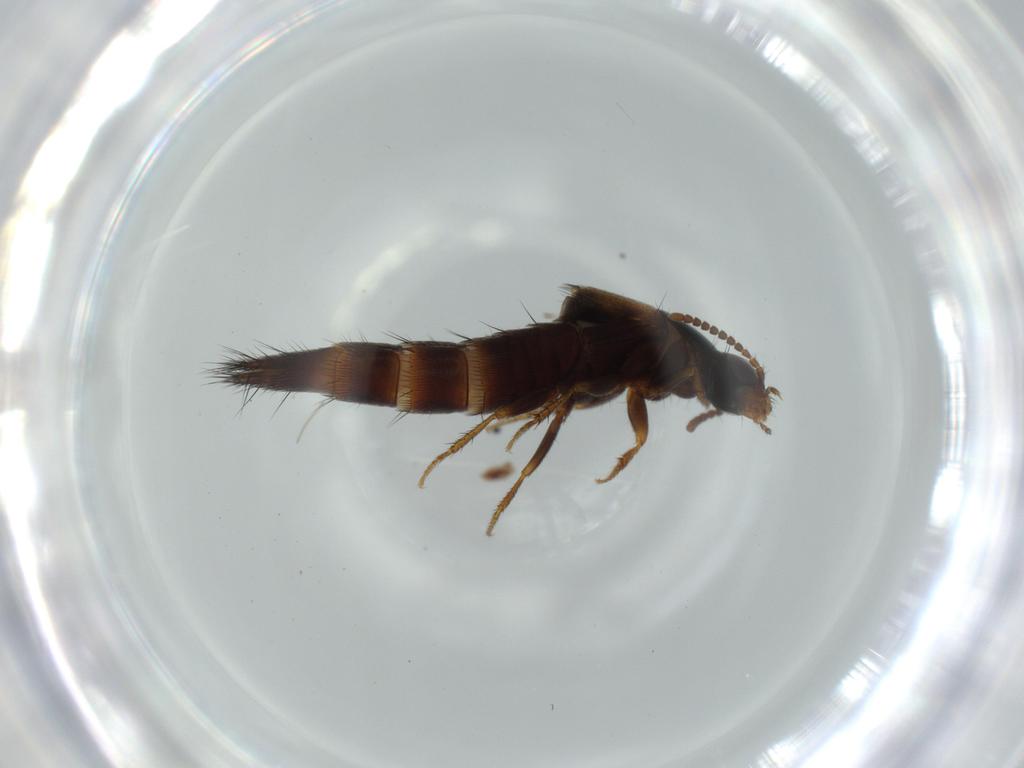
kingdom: Animalia
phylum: Arthropoda
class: Insecta
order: Coleoptera
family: Staphylinidae
